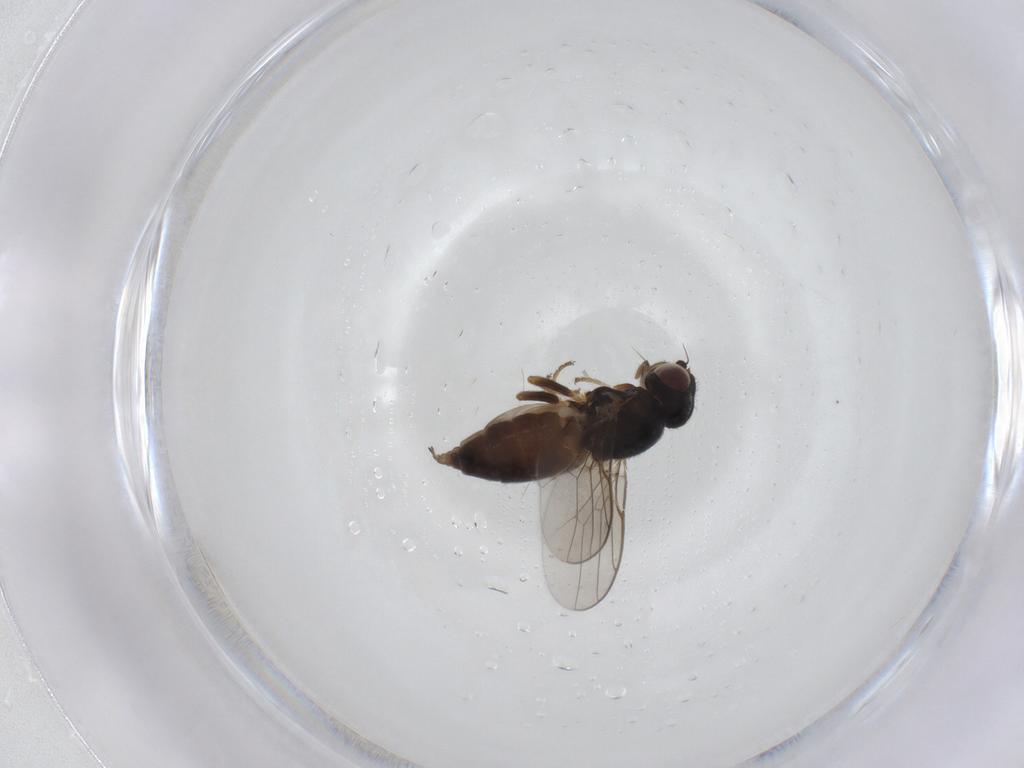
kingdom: Animalia
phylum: Arthropoda
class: Insecta
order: Diptera
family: Chloropidae
